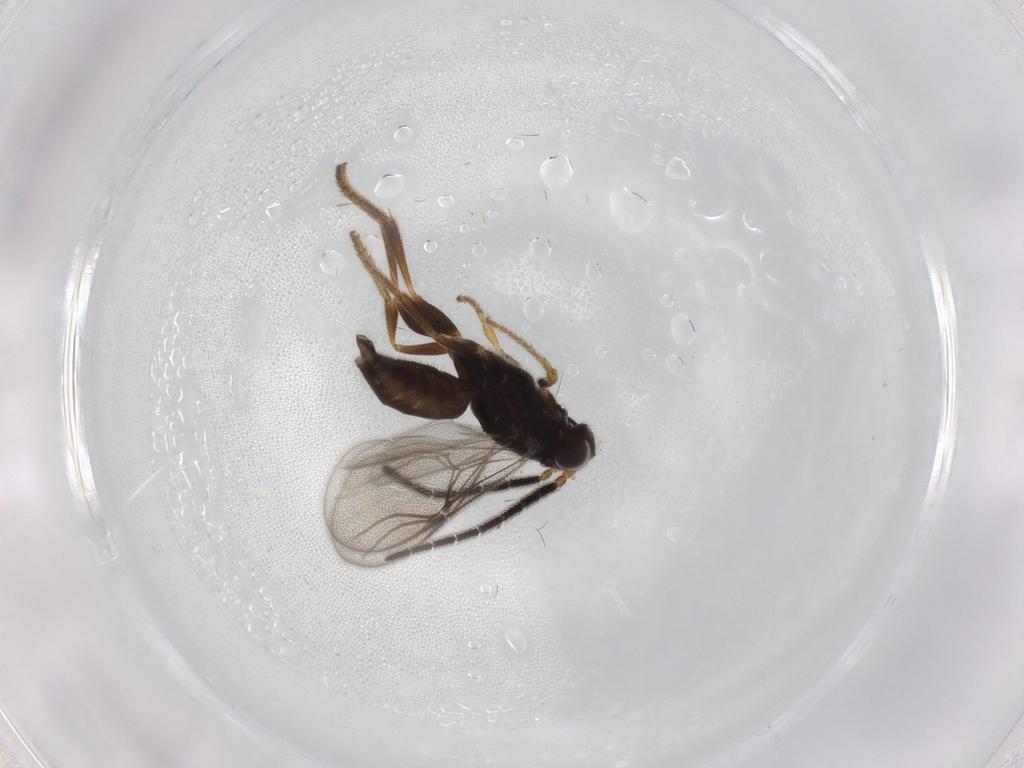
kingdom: Animalia
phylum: Arthropoda
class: Insecta
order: Hymenoptera
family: Dryinidae
